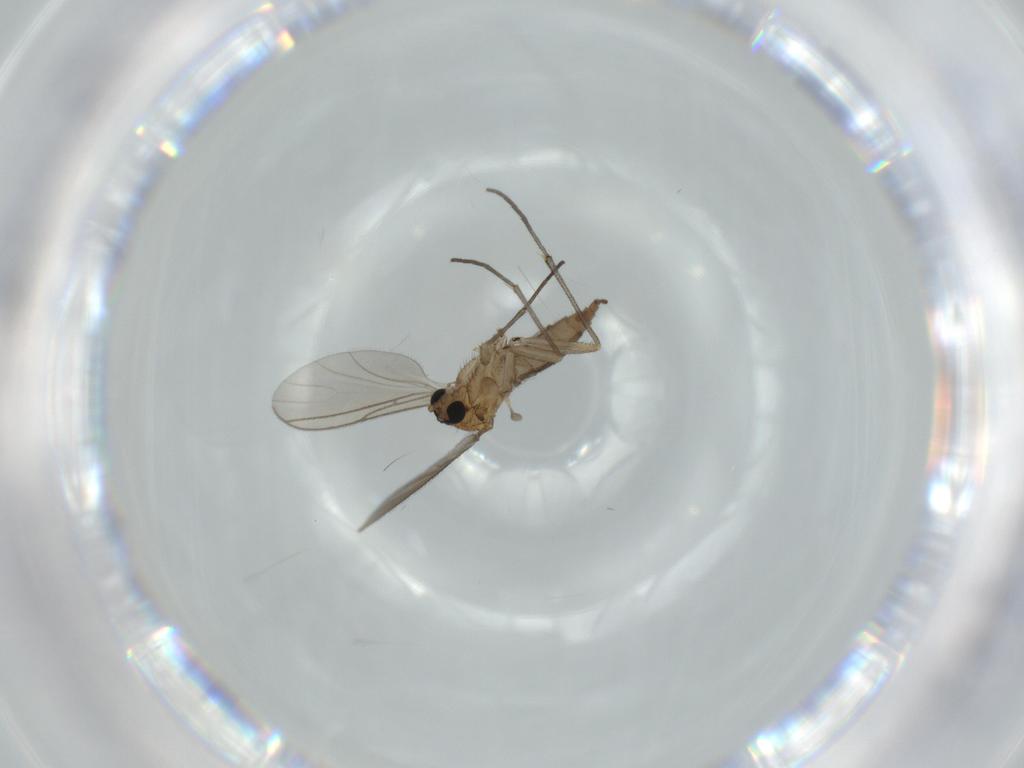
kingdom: Animalia
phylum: Arthropoda
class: Insecta
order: Diptera
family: Sciaridae
